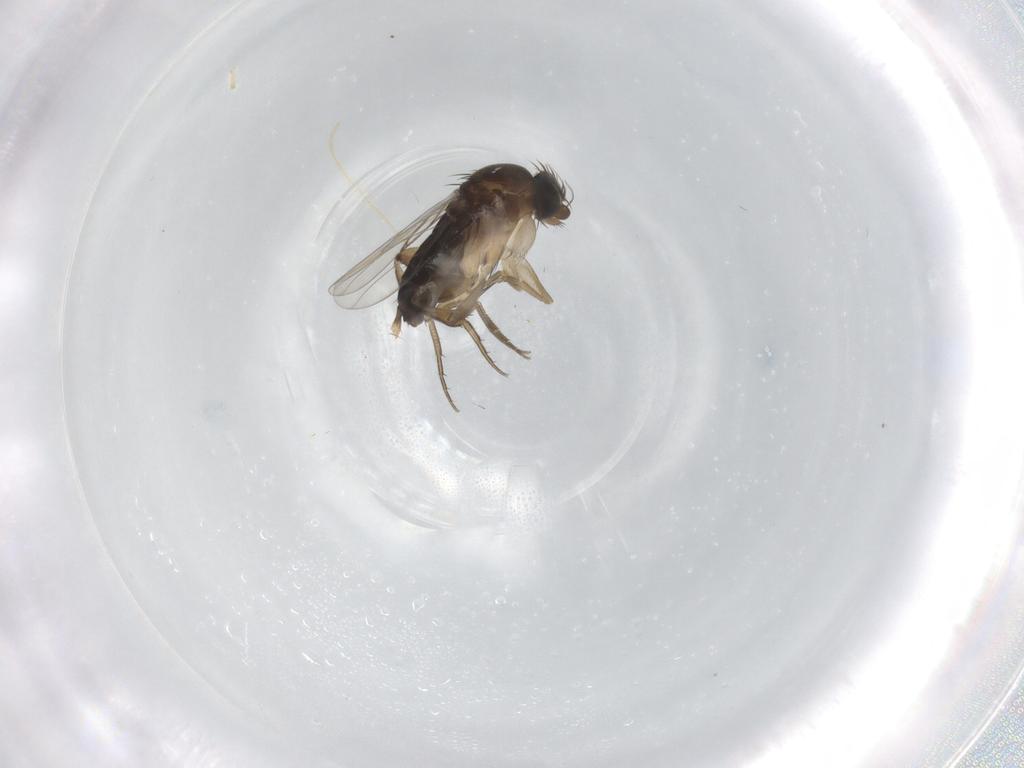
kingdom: Animalia
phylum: Arthropoda
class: Insecta
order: Diptera
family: Phoridae
